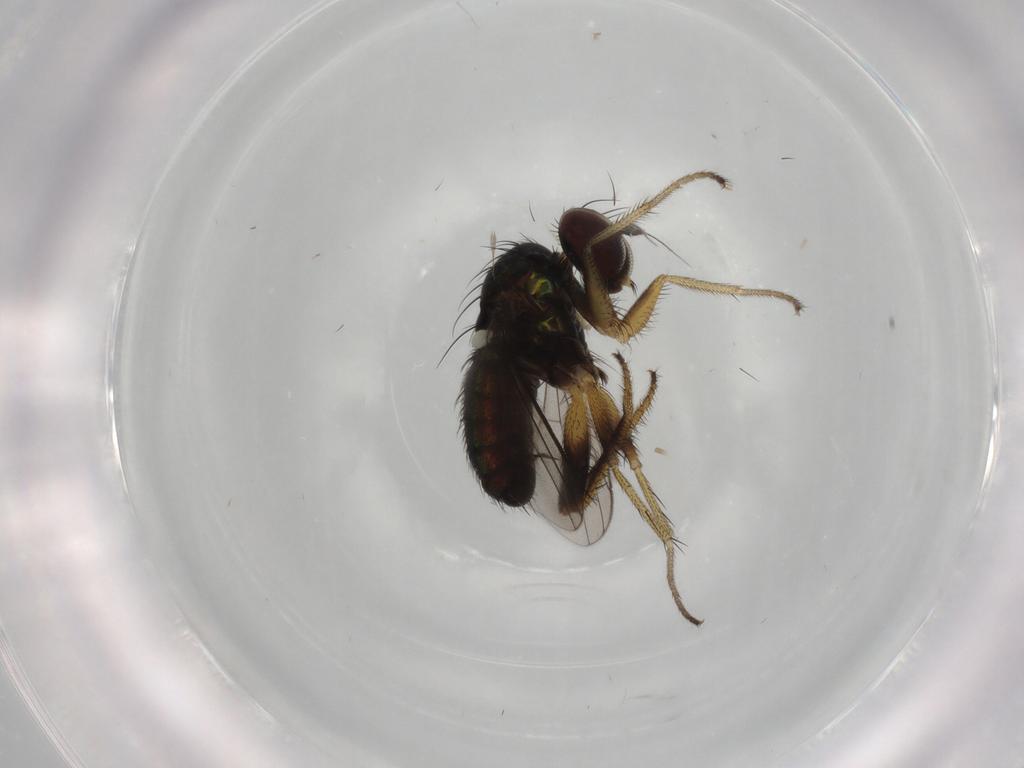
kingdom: Animalia
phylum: Arthropoda
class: Insecta
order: Diptera
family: Dolichopodidae
